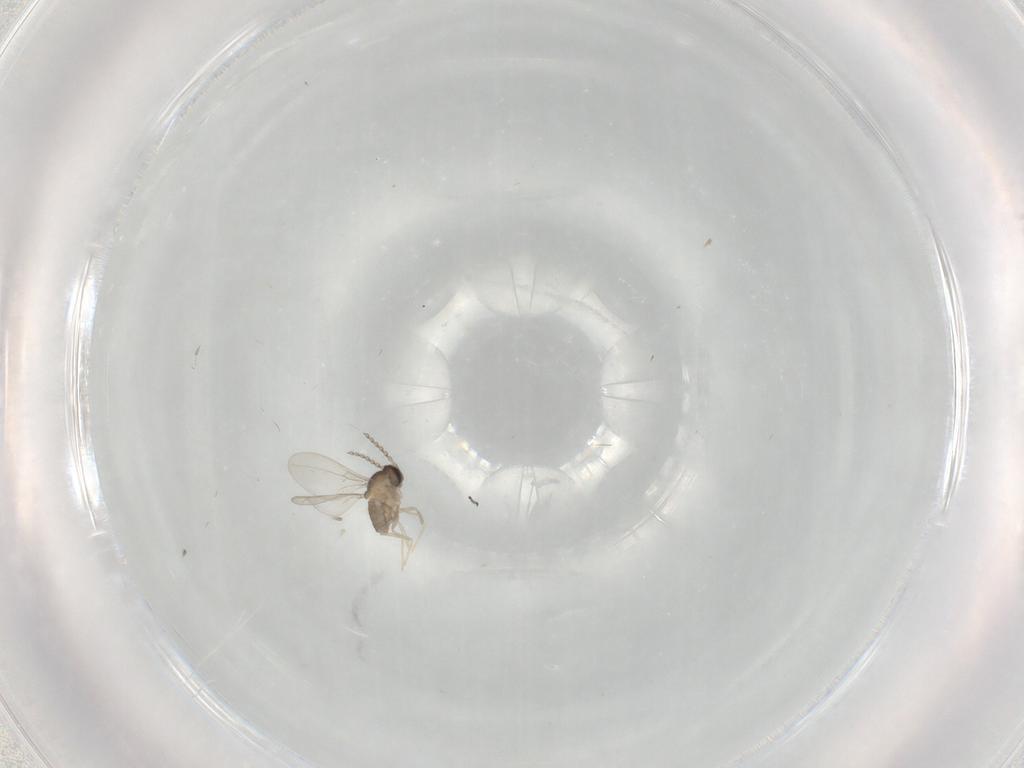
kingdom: Animalia
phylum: Arthropoda
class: Insecta
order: Diptera
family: Cecidomyiidae
